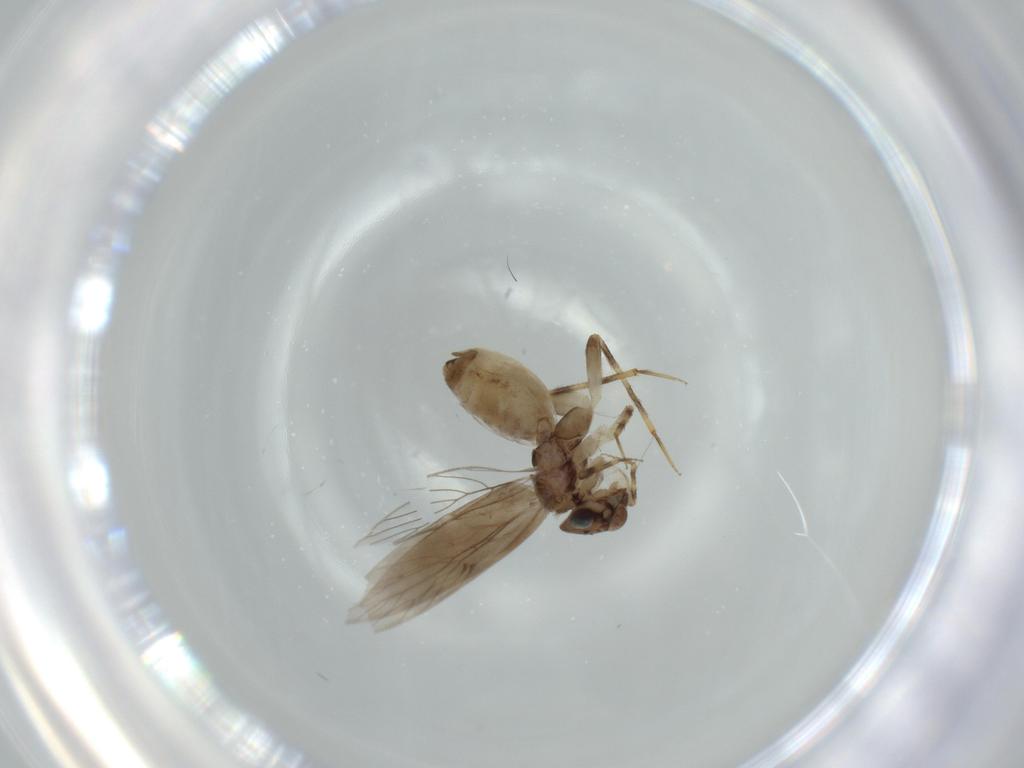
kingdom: Animalia
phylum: Arthropoda
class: Insecta
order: Psocodea
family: Lepidopsocidae
